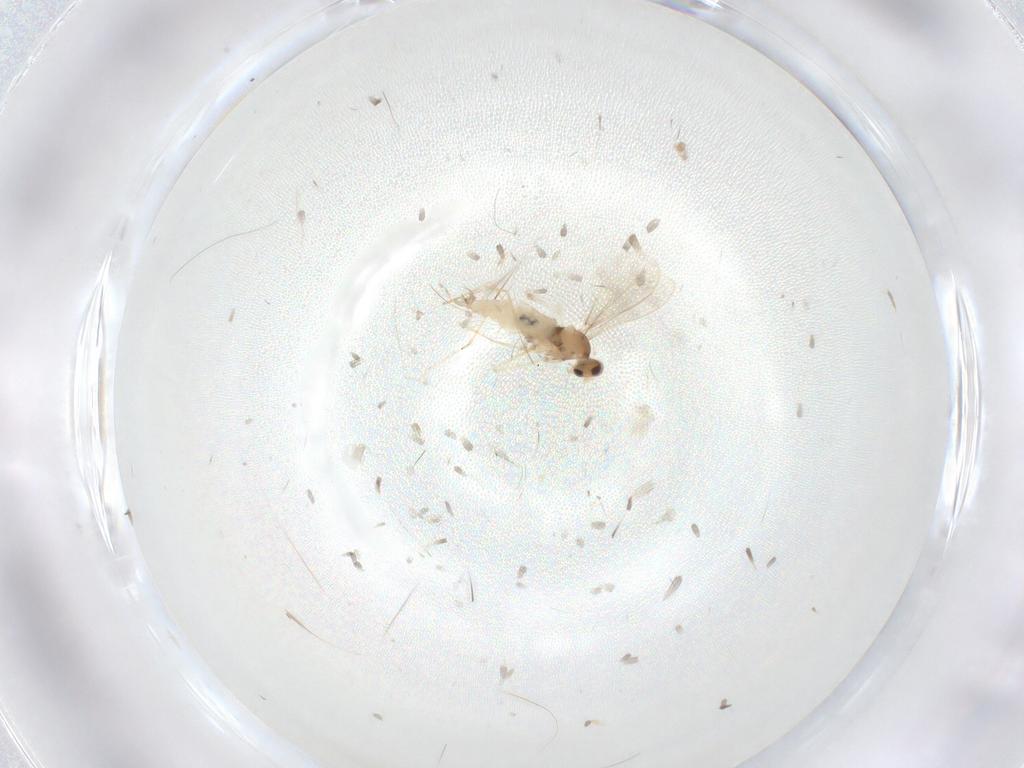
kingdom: Animalia
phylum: Arthropoda
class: Insecta
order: Diptera
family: Cecidomyiidae
